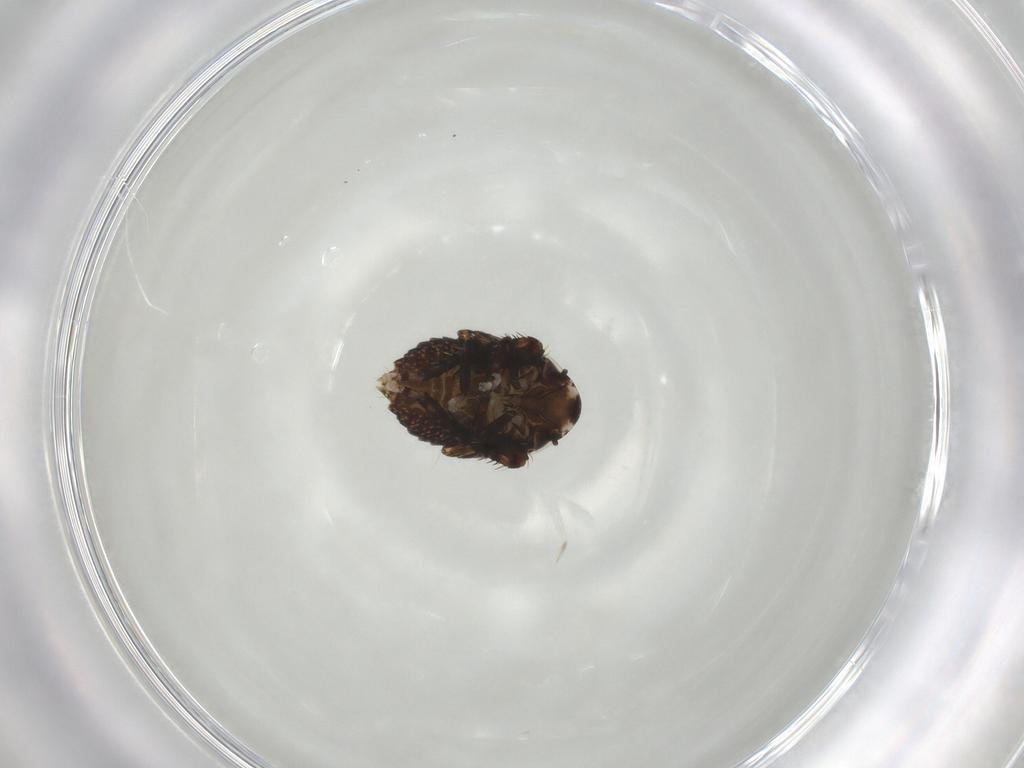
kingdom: Animalia
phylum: Arthropoda
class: Insecta
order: Hemiptera
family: Cicadellidae
